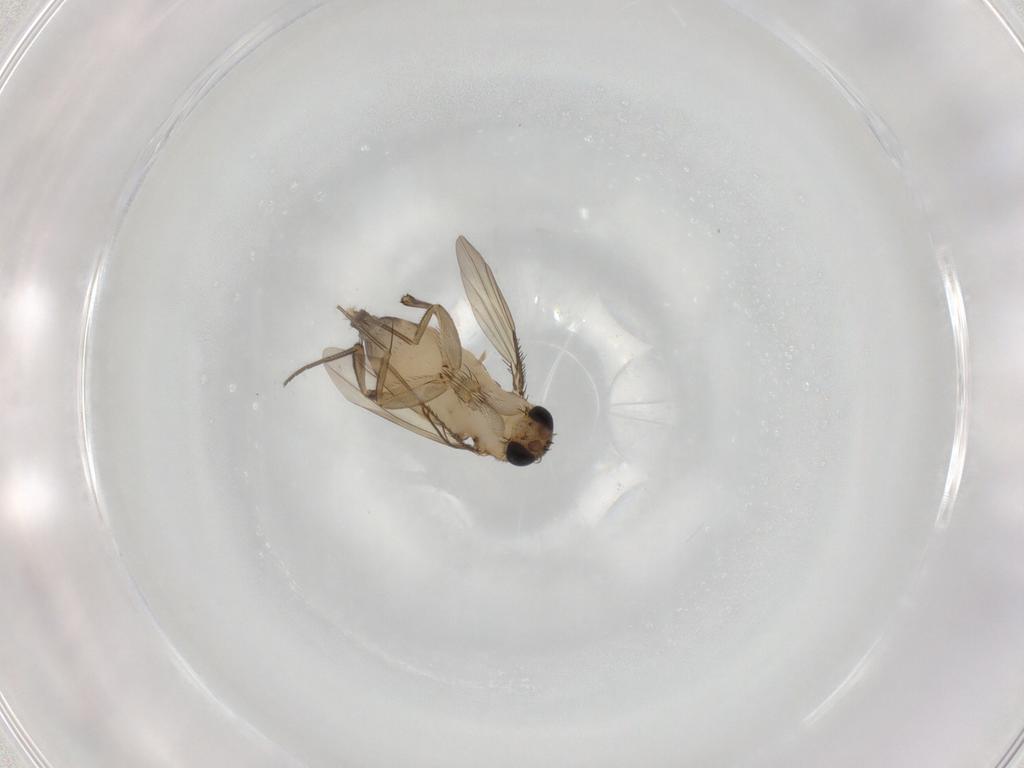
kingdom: Animalia
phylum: Arthropoda
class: Insecta
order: Diptera
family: Phoridae
